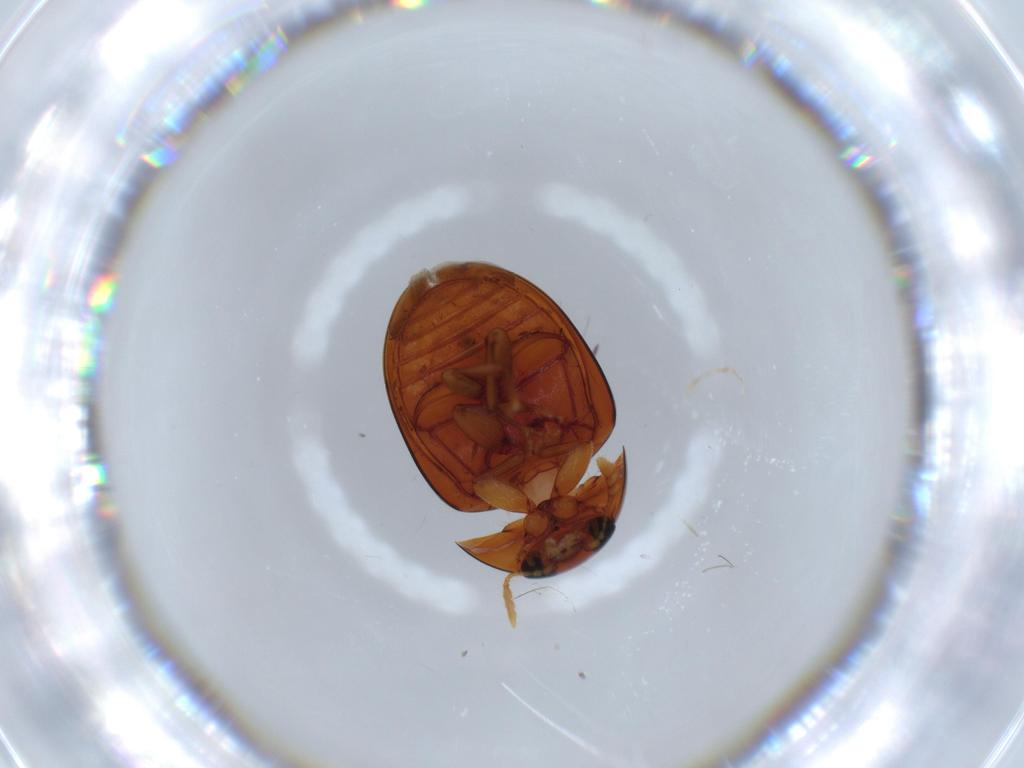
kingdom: Animalia
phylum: Arthropoda
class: Insecta
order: Coleoptera
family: Phalacridae
